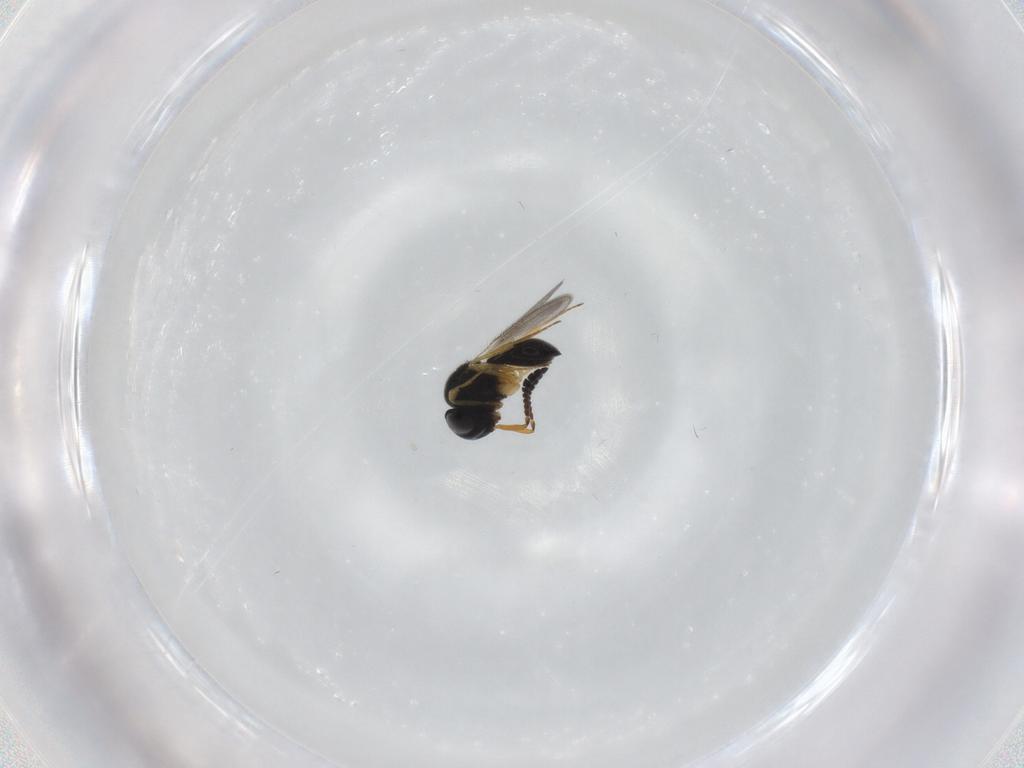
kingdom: Animalia
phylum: Arthropoda
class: Insecta
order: Hymenoptera
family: Scelionidae
